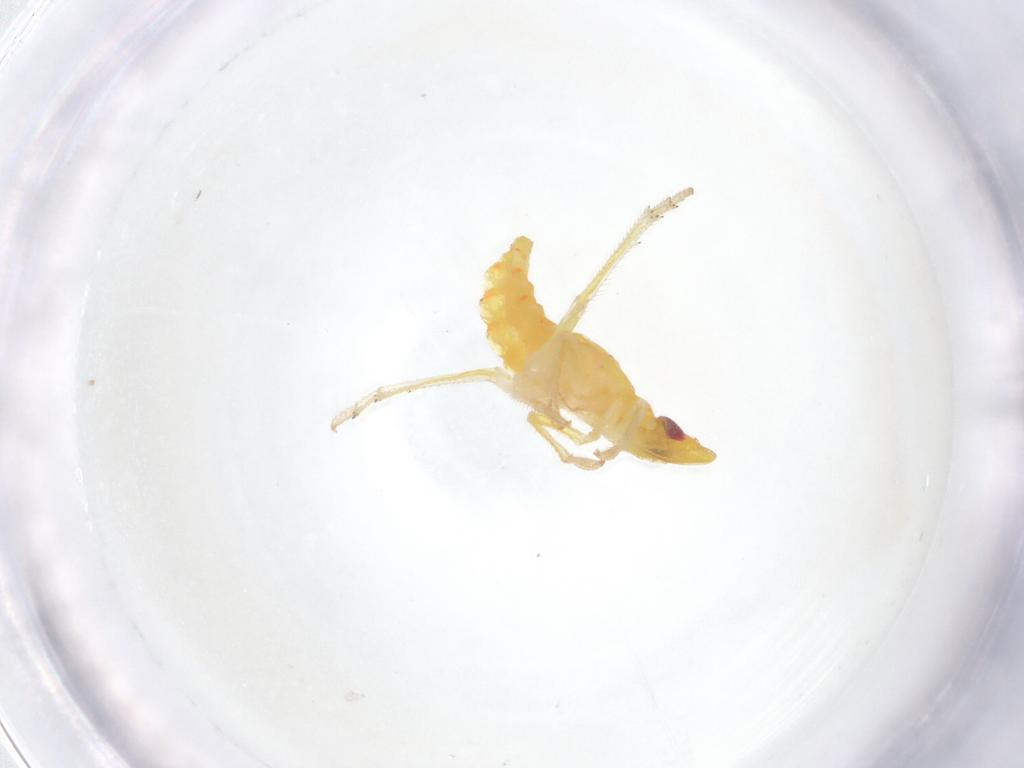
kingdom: Animalia
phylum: Arthropoda
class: Insecta
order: Hemiptera
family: Tropiduchidae
